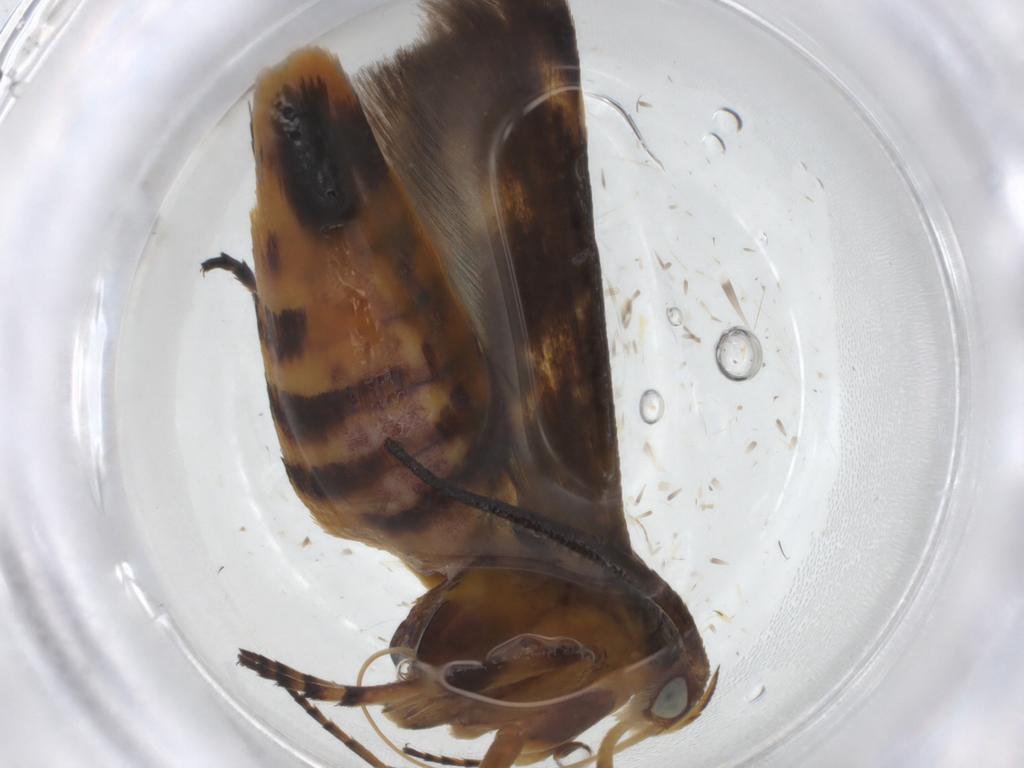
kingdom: Animalia
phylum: Arthropoda
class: Insecta
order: Lepidoptera
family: Scythrididae
